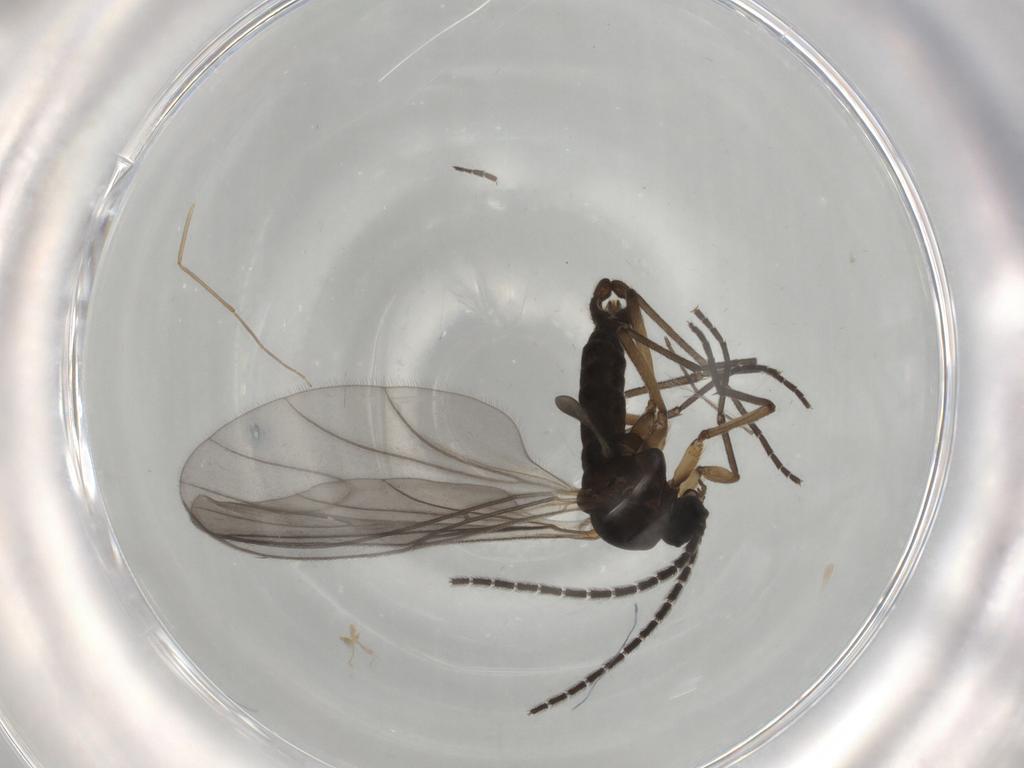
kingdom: Animalia
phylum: Arthropoda
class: Insecta
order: Diptera
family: Sciaridae
